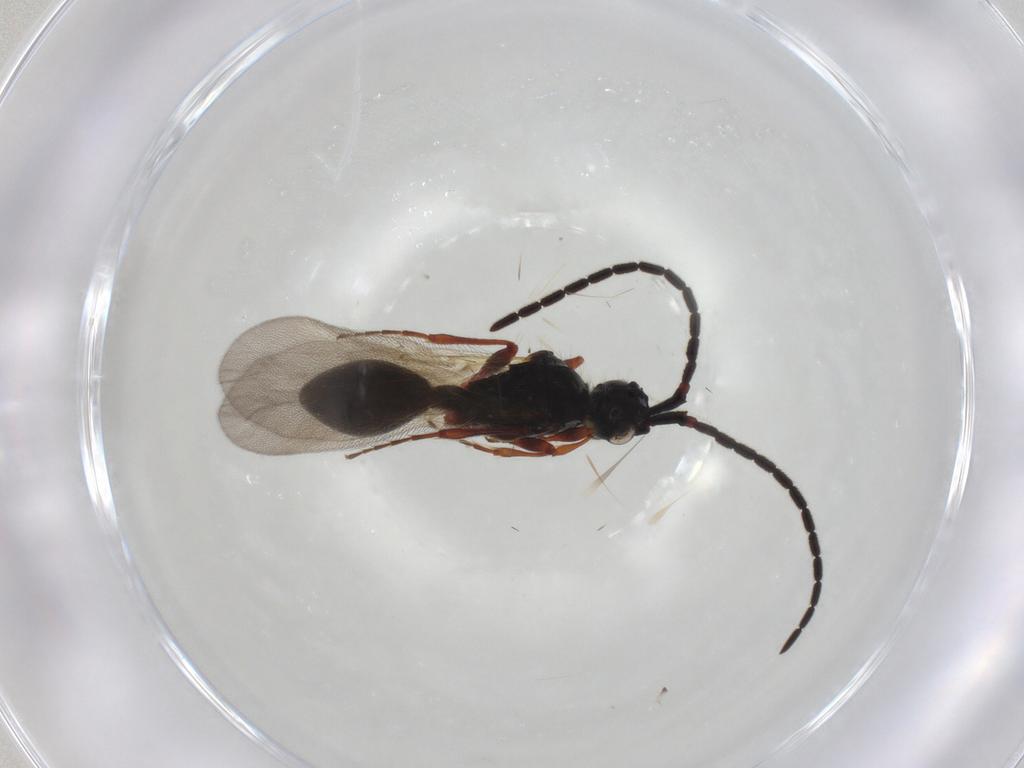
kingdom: Animalia
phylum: Arthropoda
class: Insecta
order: Hymenoptera
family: Diapriidae
